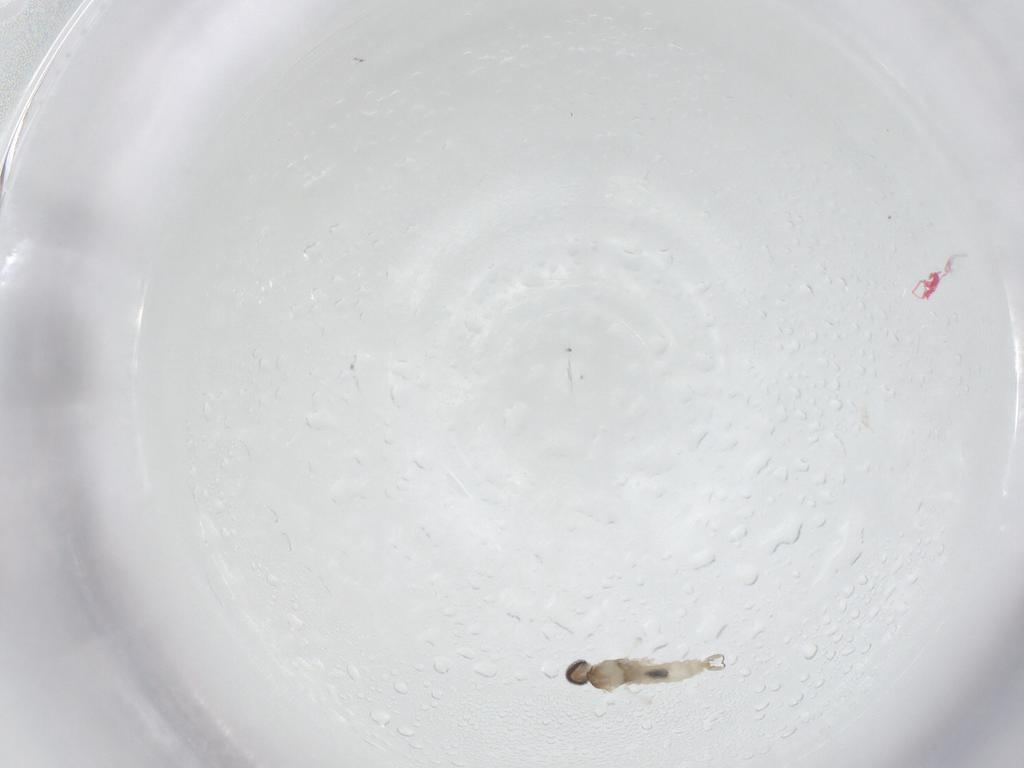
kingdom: Animalia
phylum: Arthropoda
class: Insecta
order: Diptera
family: Cecidomyiidae
